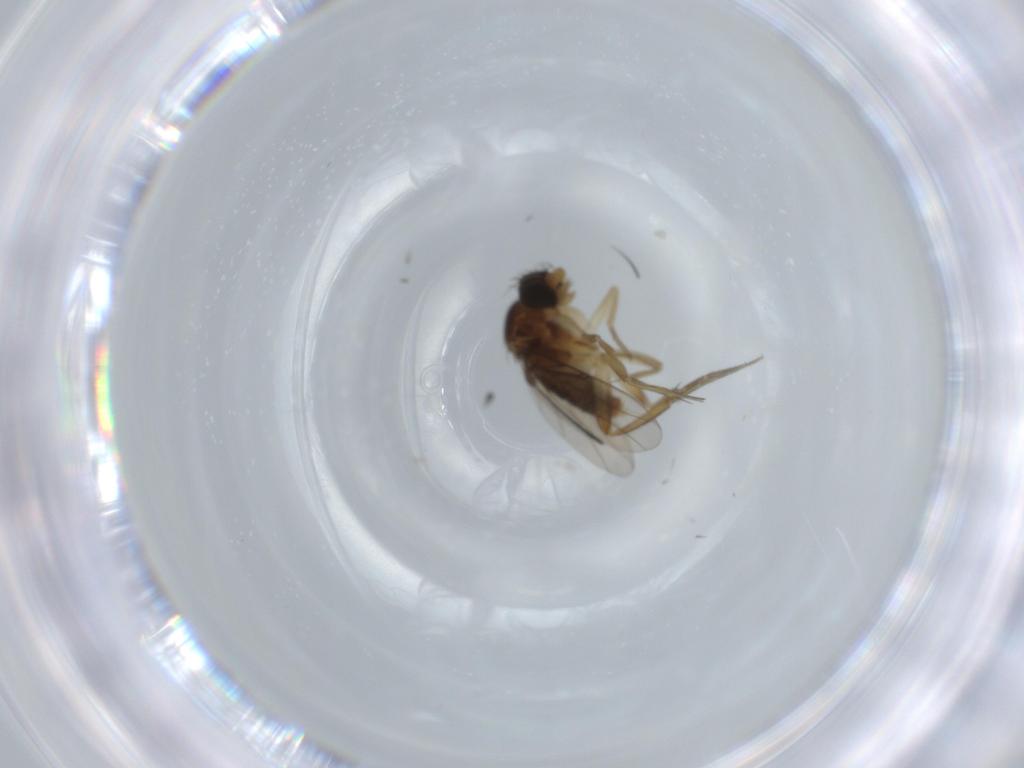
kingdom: Animalia
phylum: Arthropoda
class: Insecta
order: Diptera
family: Phoridae
